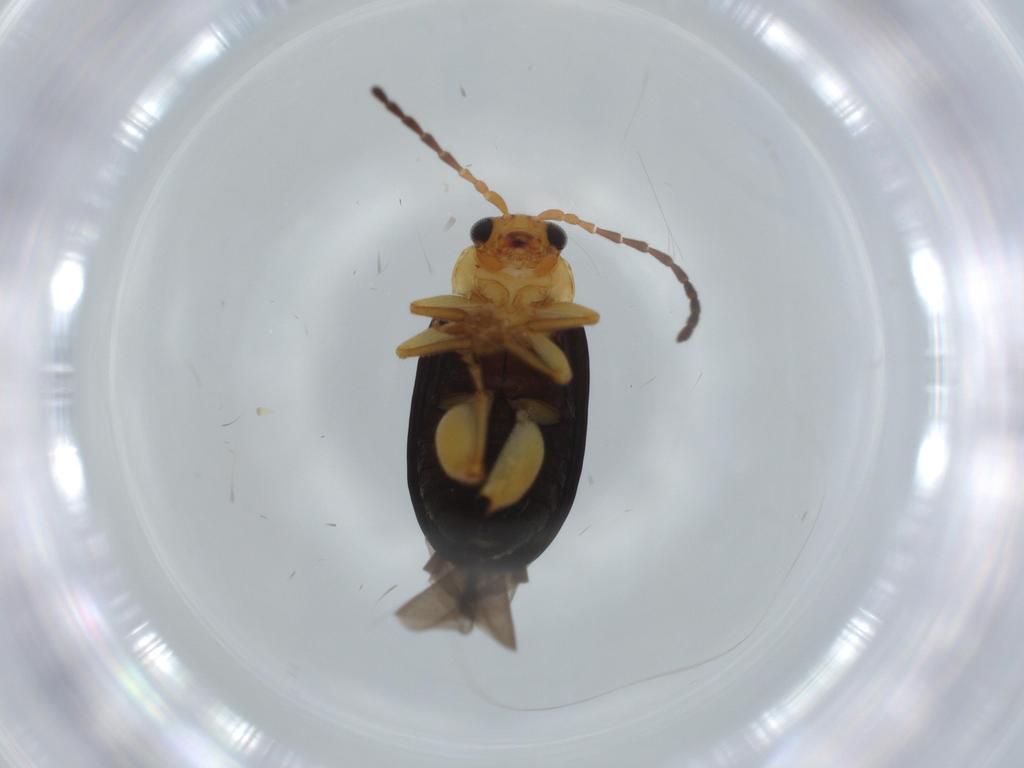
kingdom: Animalia
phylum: Arthropoda
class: Insecta
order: Coleoptera
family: Chrysomelidae
